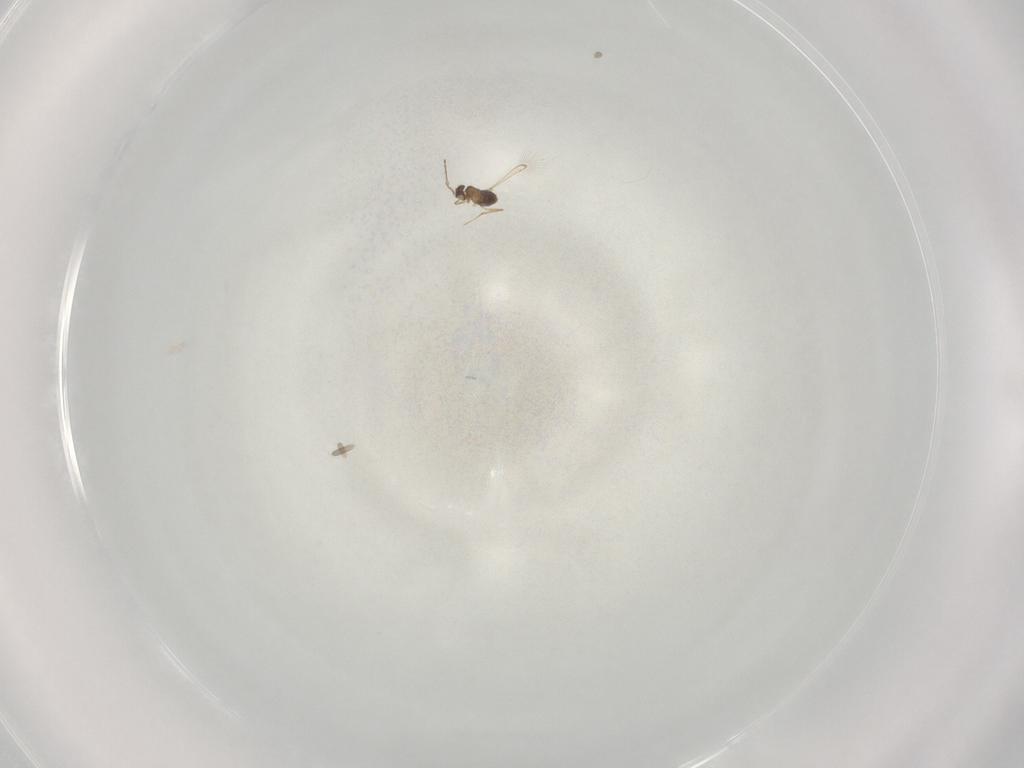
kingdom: Animalia
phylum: Arthropoda
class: Insecta
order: Hymenoptera
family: Mymaridae
